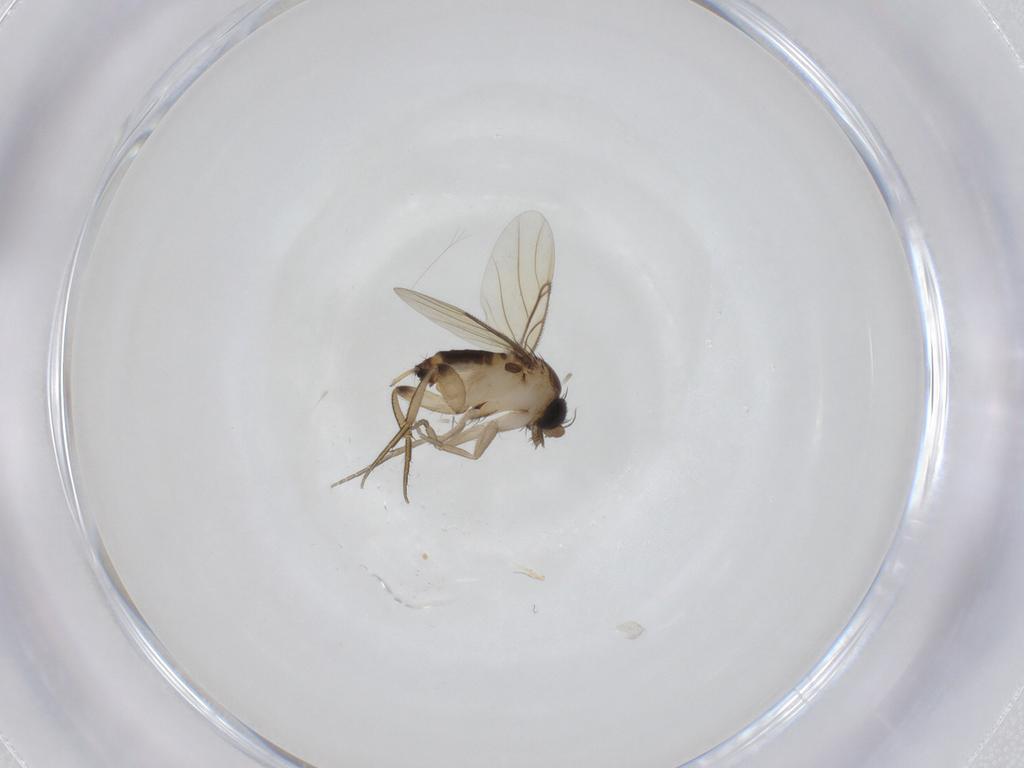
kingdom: Animalia
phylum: Arthropoda
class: Insecta
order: Diptera
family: Phoridae
